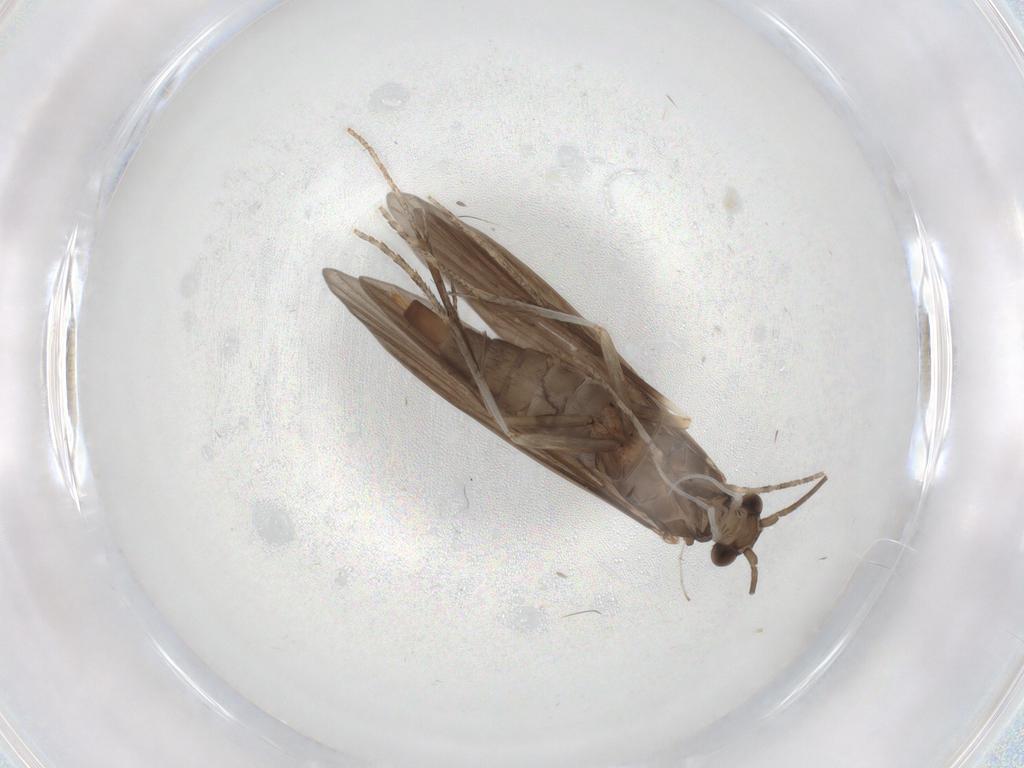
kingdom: Animalia
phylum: Arthropoda
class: Insecta
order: Trichoptera
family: Xiphocentronidae
